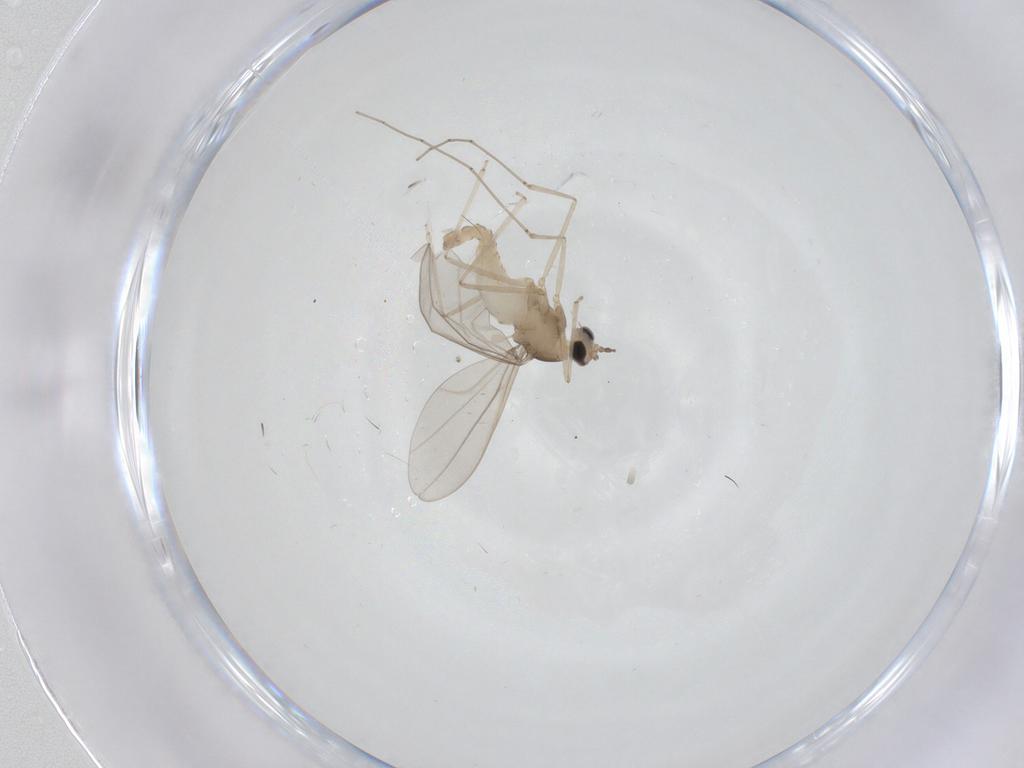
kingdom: Animalia
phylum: Arthropoda
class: Insecta
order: Diptera
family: Cecidomyiidae
